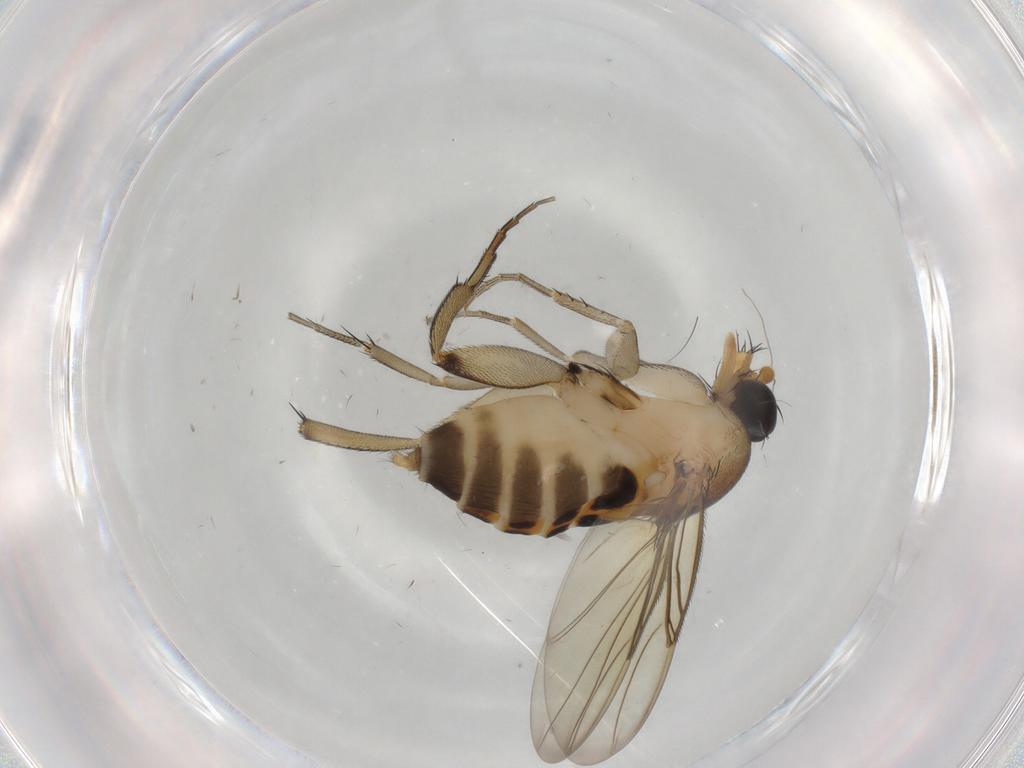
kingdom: Animalia
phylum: Arthropoda
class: Insecta
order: Diptera
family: Phoridae
